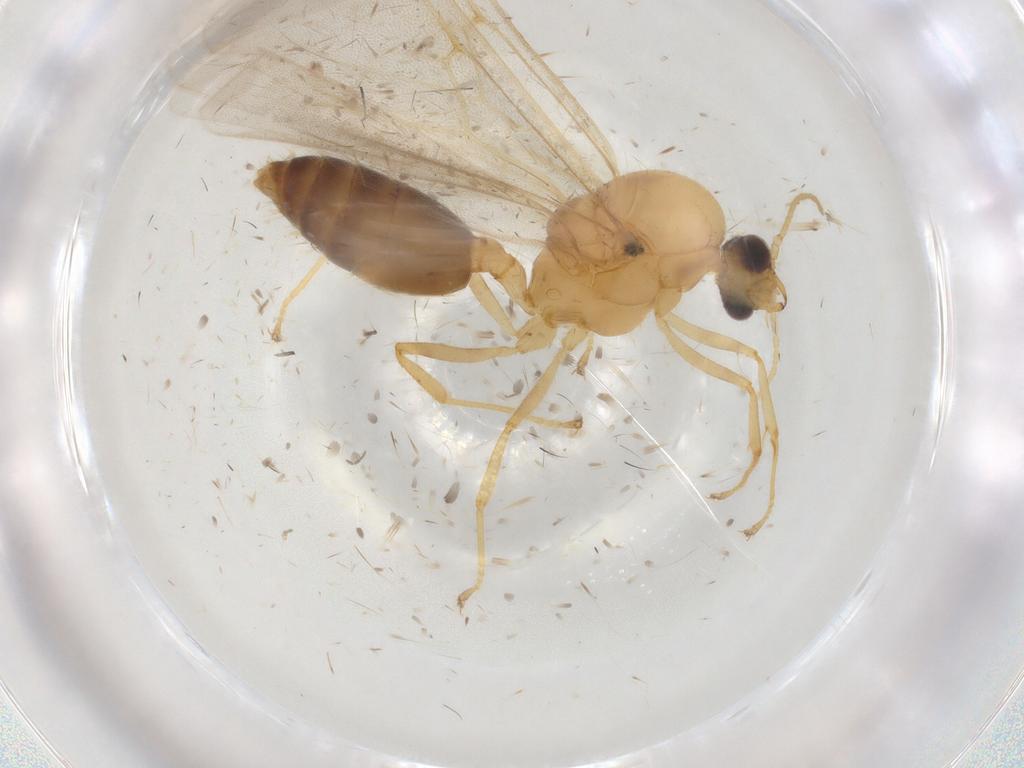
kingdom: Animalia
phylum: Arthropoda
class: Insecta
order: Hymenoptera
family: Formicidae
